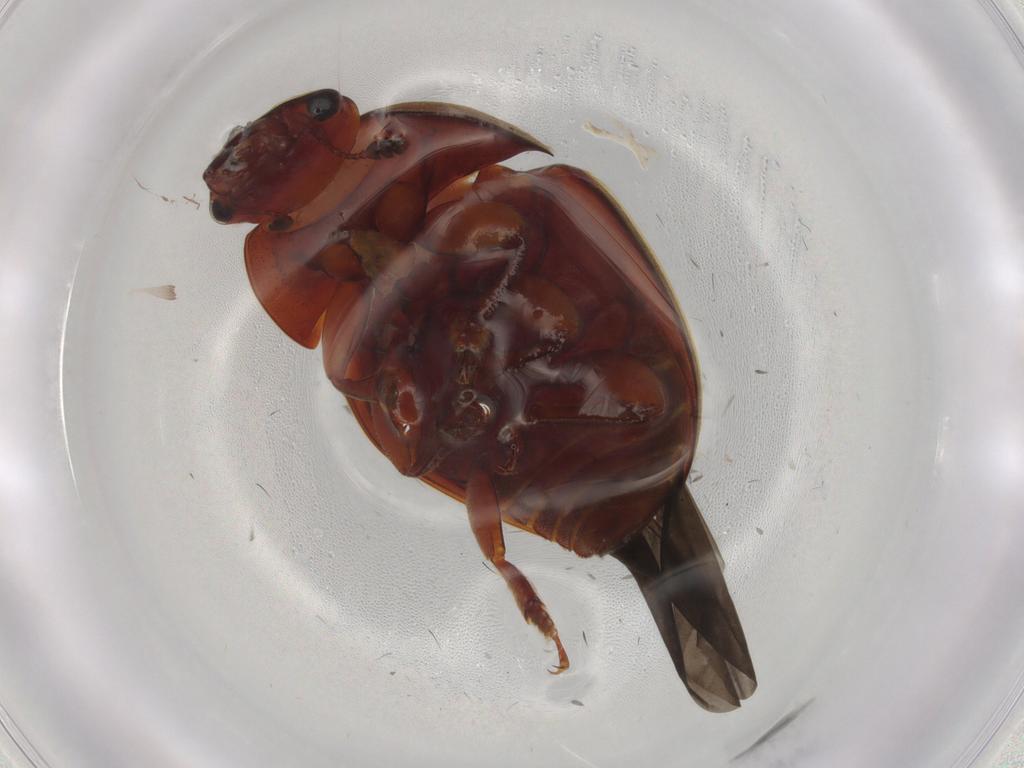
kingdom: Animalia
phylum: Arthropoda
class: Insecta
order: Coleoptera
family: Nitidulidae
